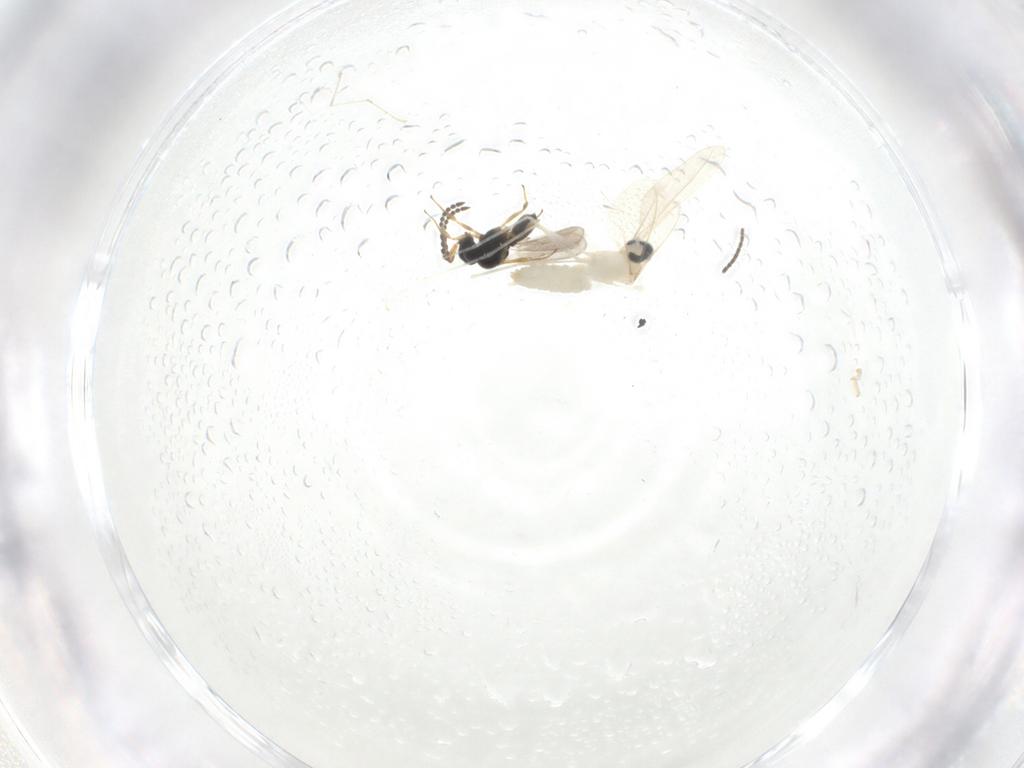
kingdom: Animalia
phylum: Arthropoda
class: Insecta
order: Diptera
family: Cecidomyiidae
